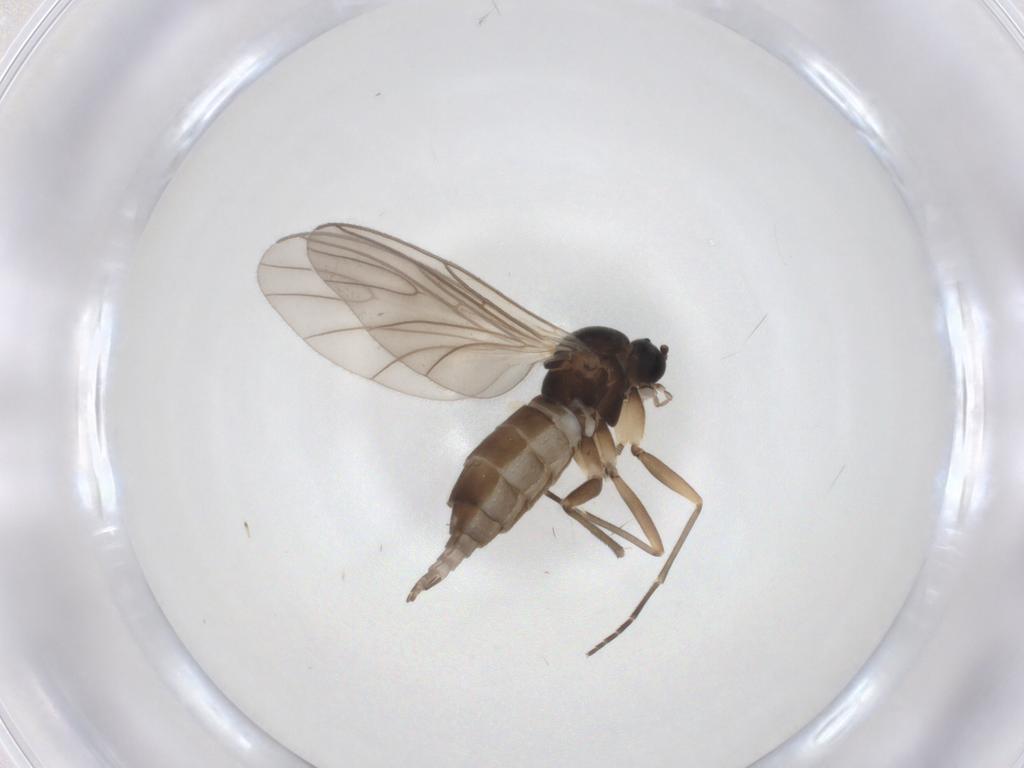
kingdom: Animalia
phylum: Arthropoda
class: Insecta
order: Diptera
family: Sciaridae
